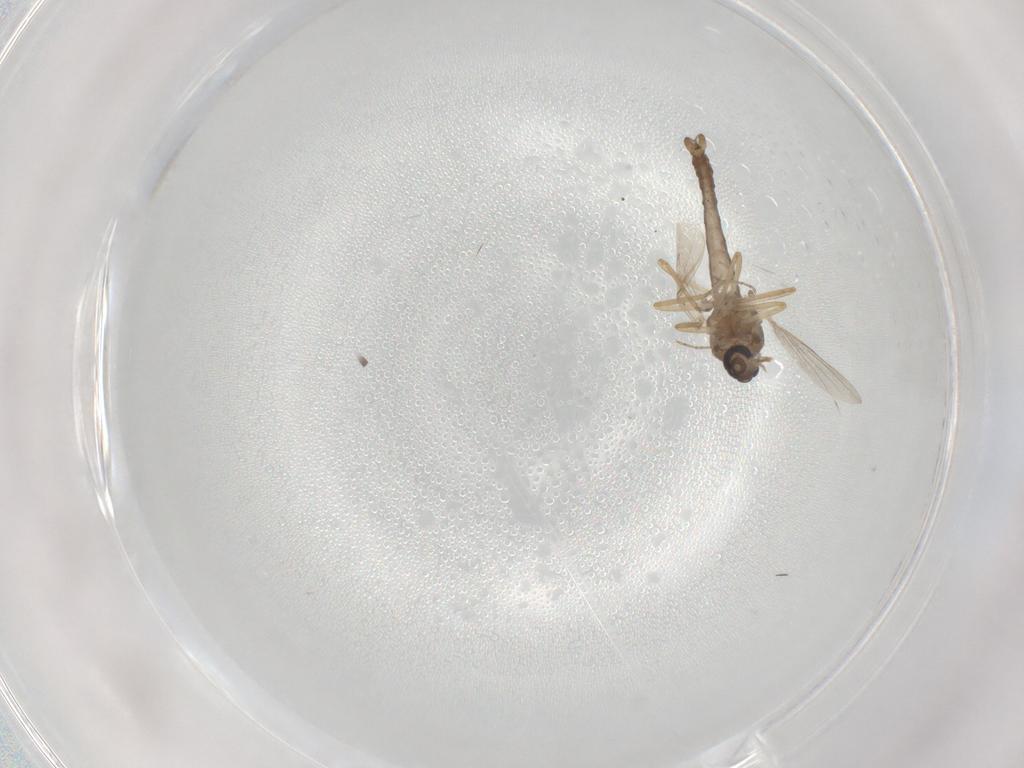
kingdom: Animalia
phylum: Arthropoda
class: Insecta
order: Diptera
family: Ceratopogonidae
